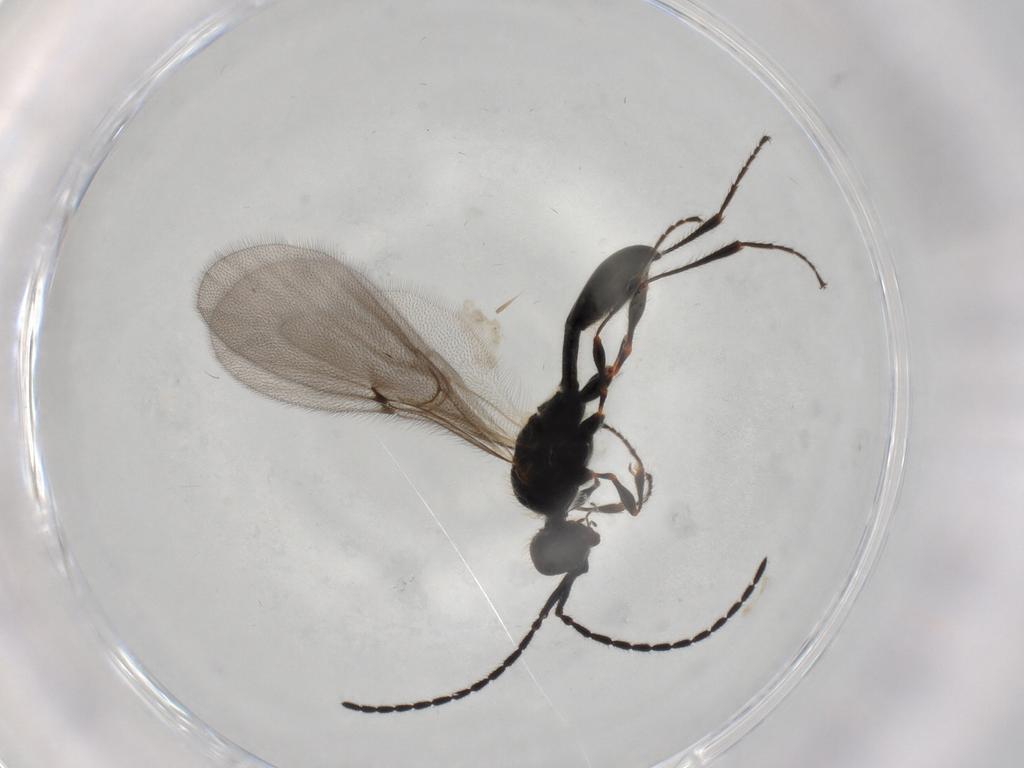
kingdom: Animalia
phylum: Arthropoda
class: Insecta
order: Hymenoptera
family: Diapriidae
